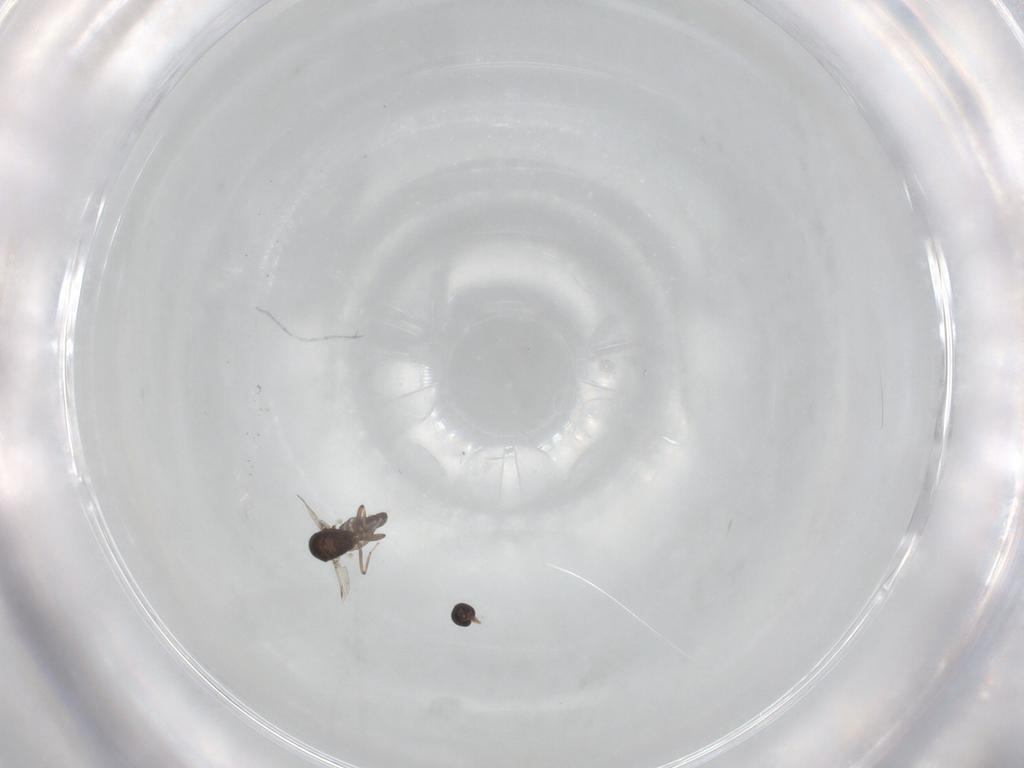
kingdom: Animalia
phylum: Arthropoda
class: Insecta
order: Diptera
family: Ceratopogonidae
